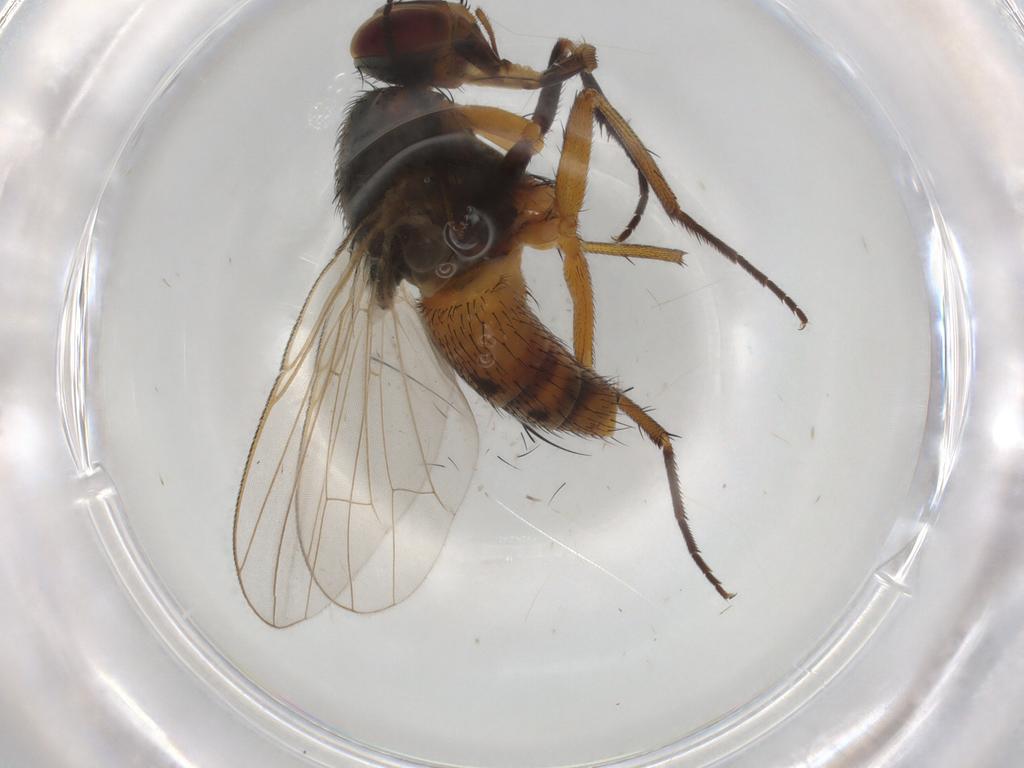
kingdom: Animalia
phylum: Arthropoda
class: Insecta
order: Diptera
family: Muscidae
